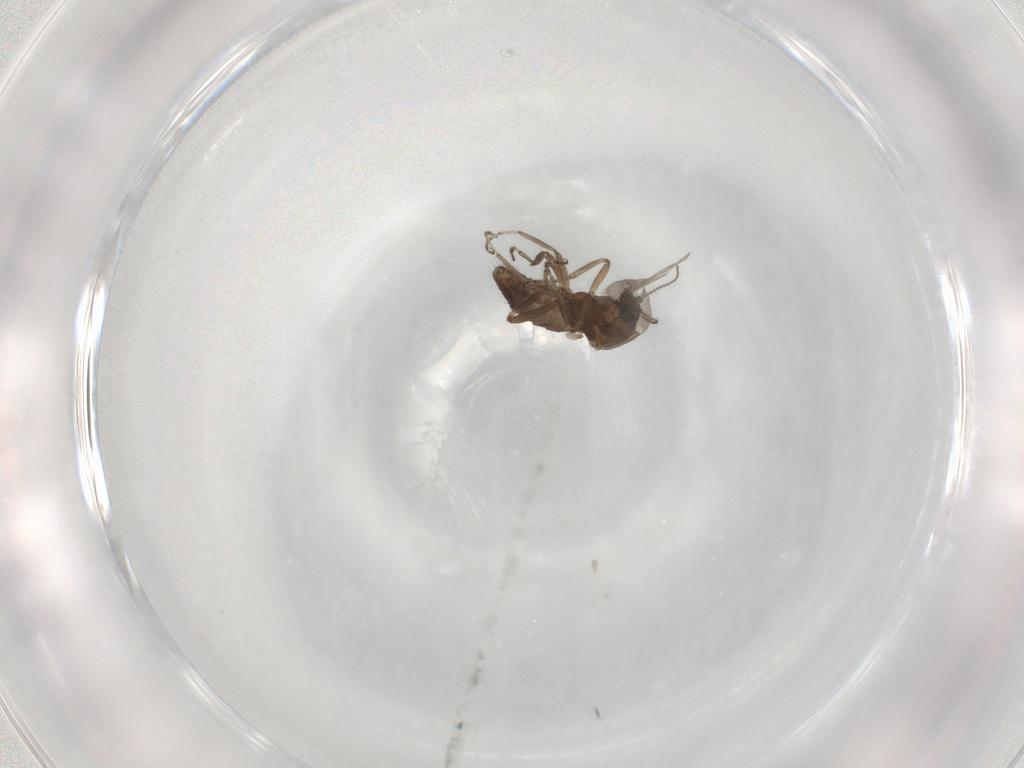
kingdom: Animalia
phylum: Arthropoda
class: Insecta
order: Diptera
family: Ceratopogonidae
